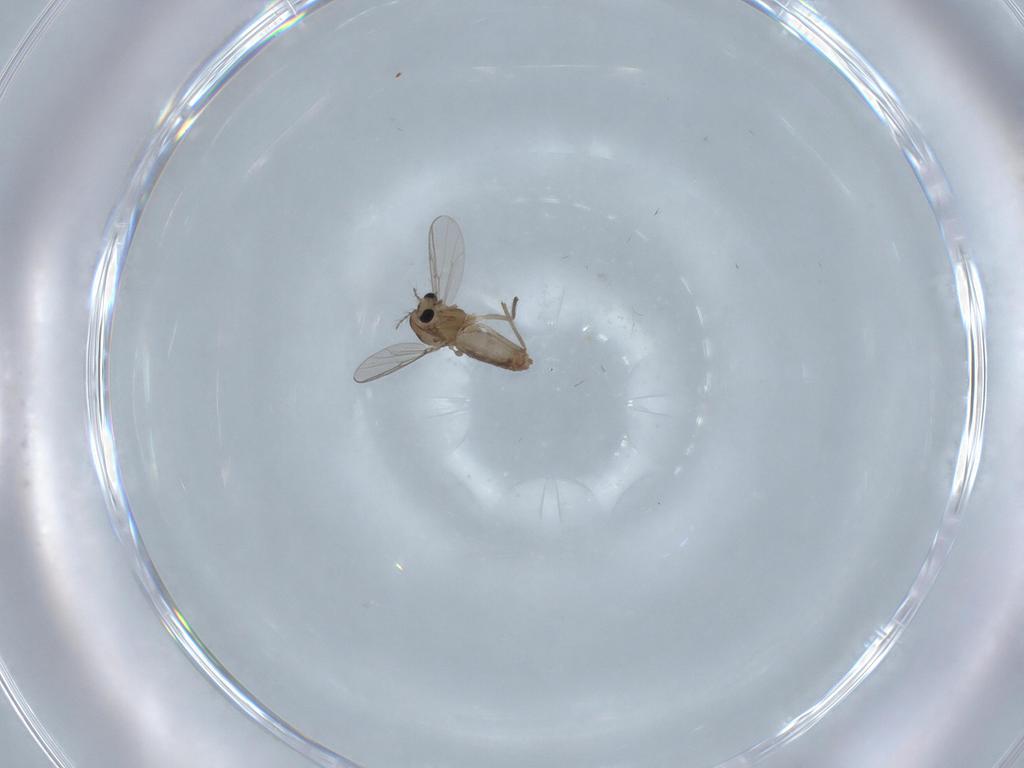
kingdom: Animalia
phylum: Arthropoda
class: Insecta
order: Diptera
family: Chironomidae
